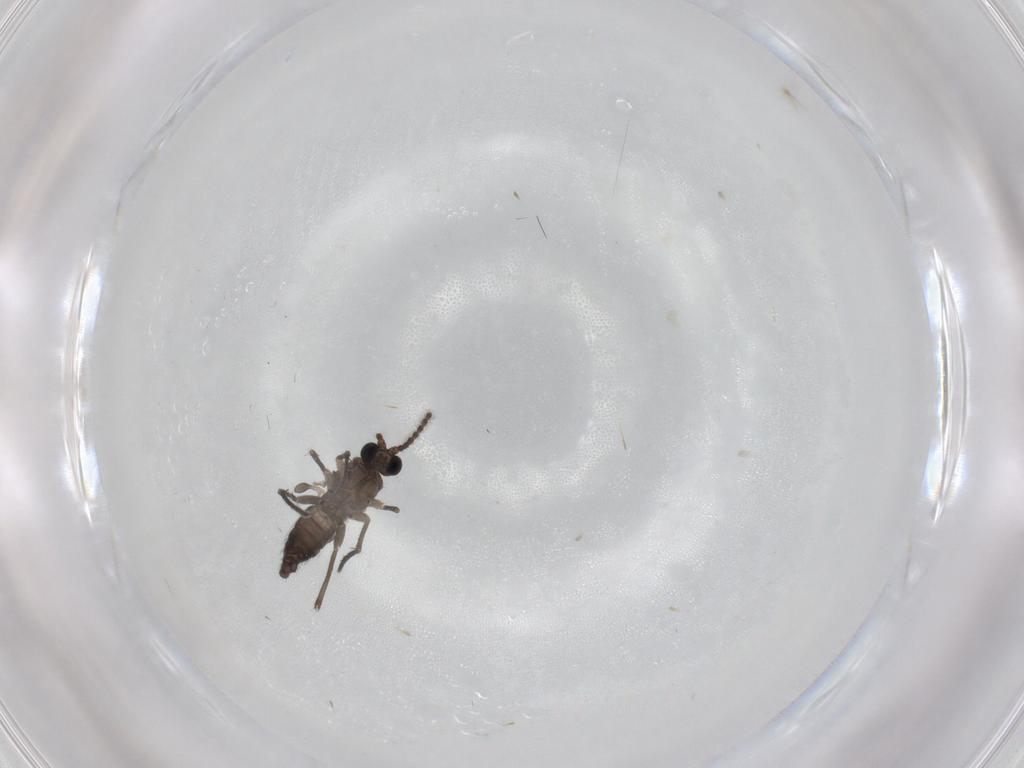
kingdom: Animalia
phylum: Arthropoda
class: Insecta
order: Diptera
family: Sciaridae
